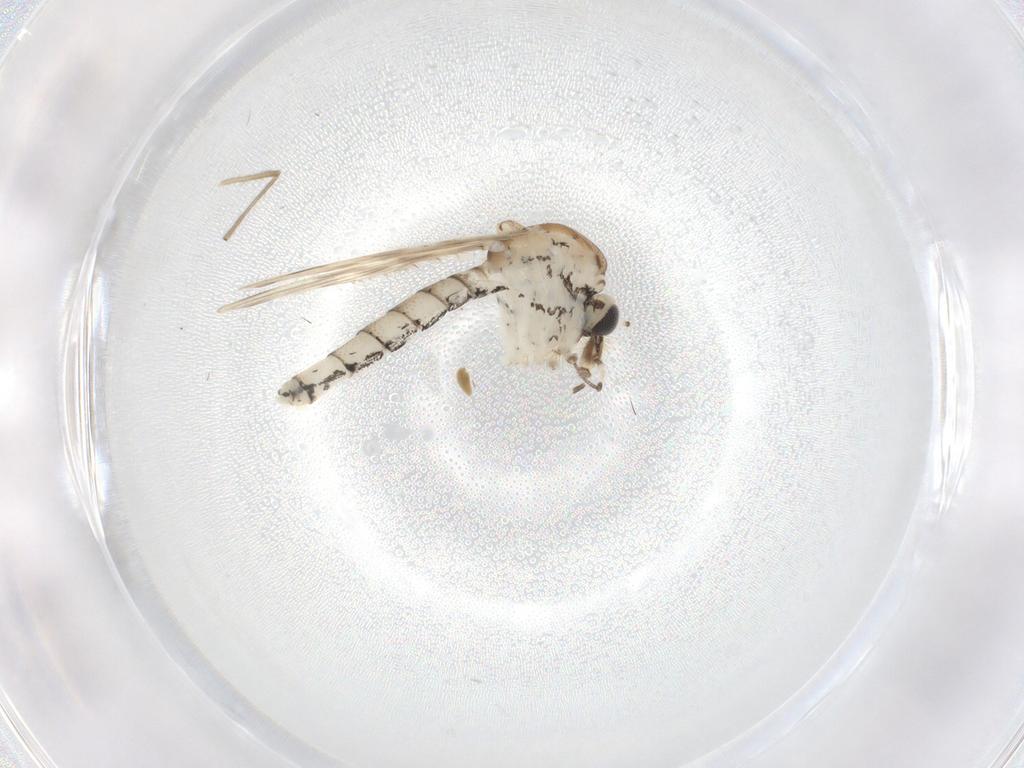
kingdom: Animalia
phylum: Arthropoda
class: Insecta
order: Diptera
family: Chaoboridae
